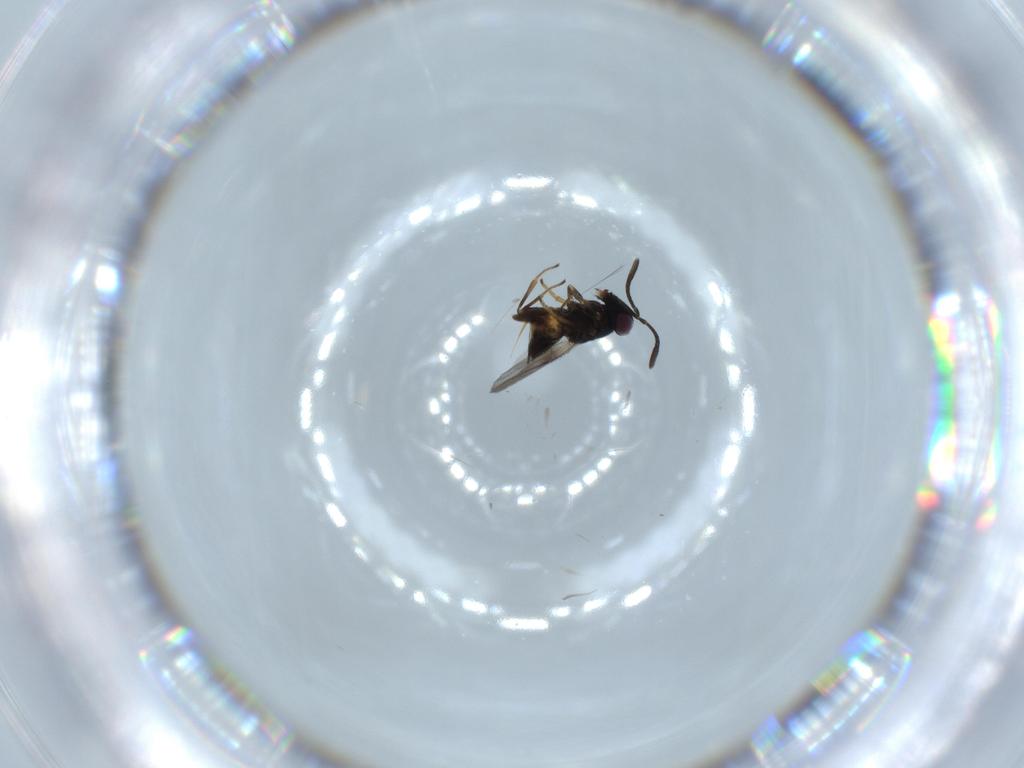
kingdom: Animalia
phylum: Arthropoda
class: Insecta
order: Hymenoptera
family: Encyrtidae
